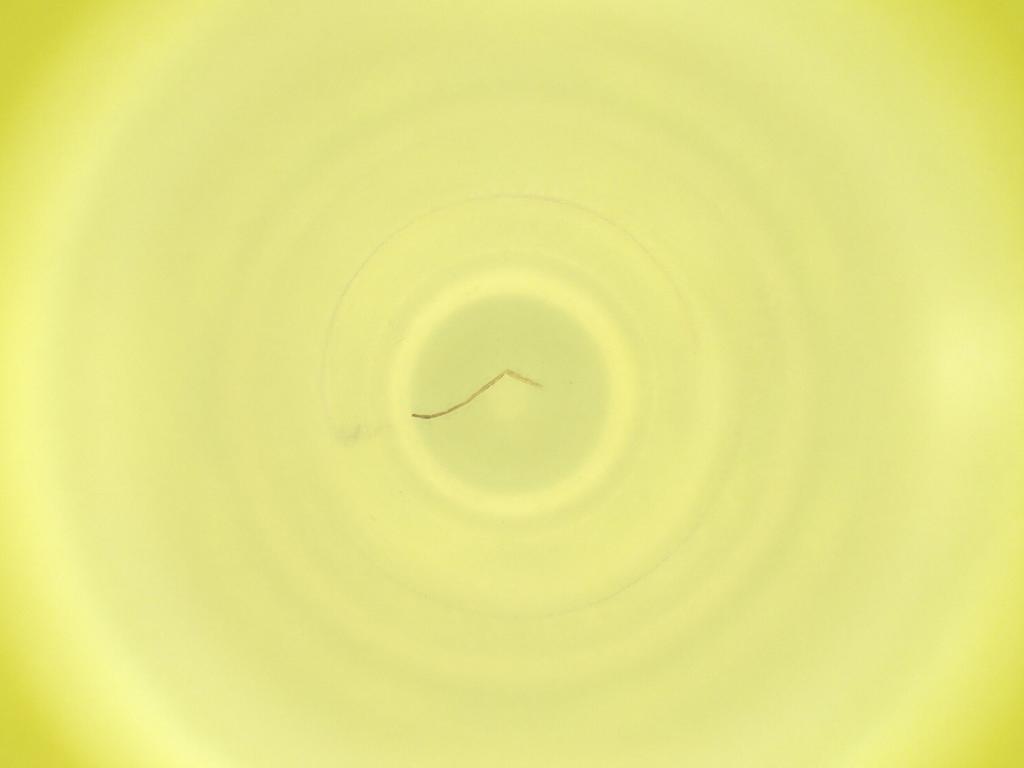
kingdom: Animalia
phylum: Arthropoda
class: Insecta
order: Diptera
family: Cecidomyiidae
